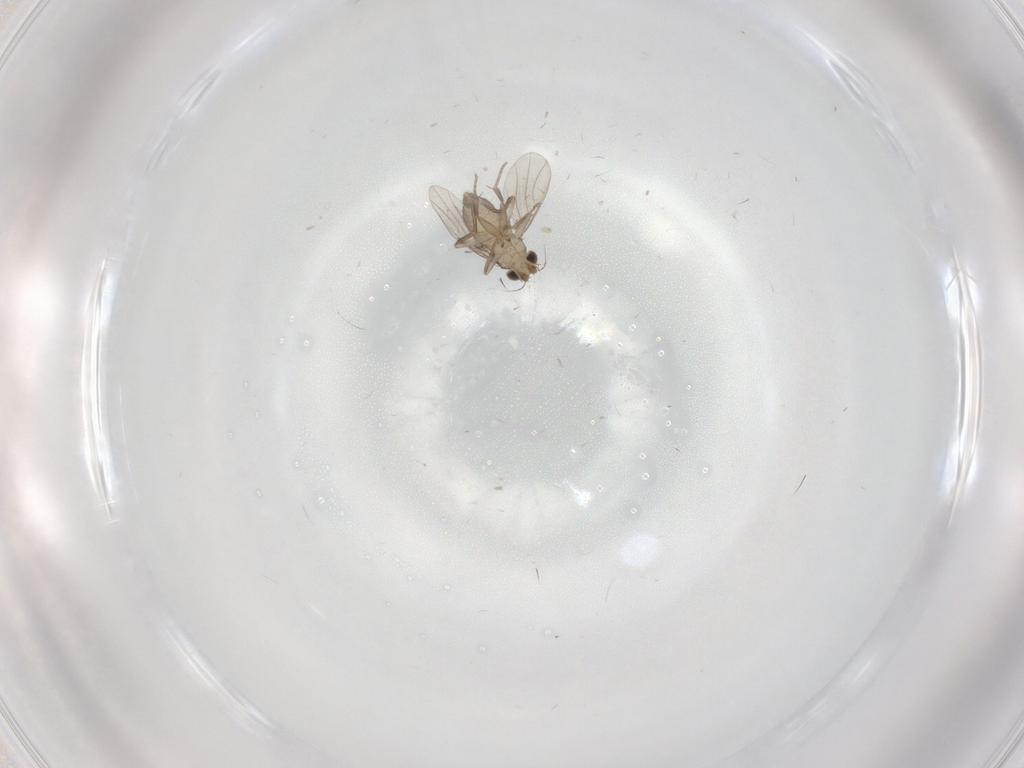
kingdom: Animalia
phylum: Arthropoda
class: Insecta
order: Diptera
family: Phoridae
